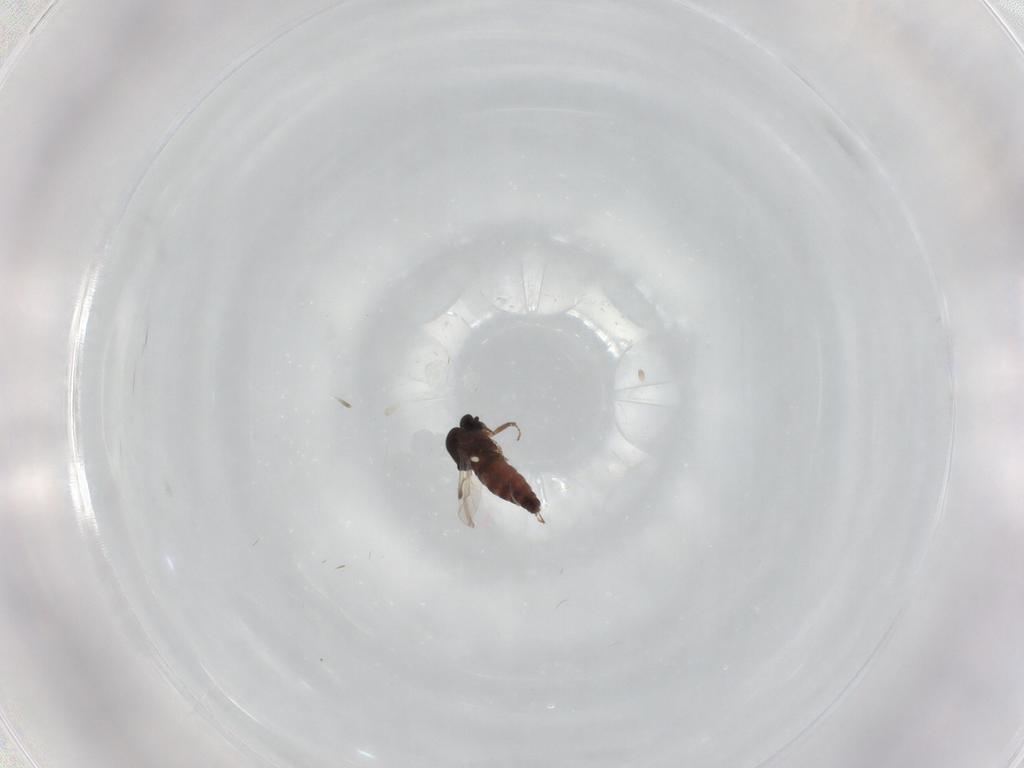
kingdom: Animalia
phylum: Arthropoda
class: Insecta
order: Diptera
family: Ceratopogonidae
